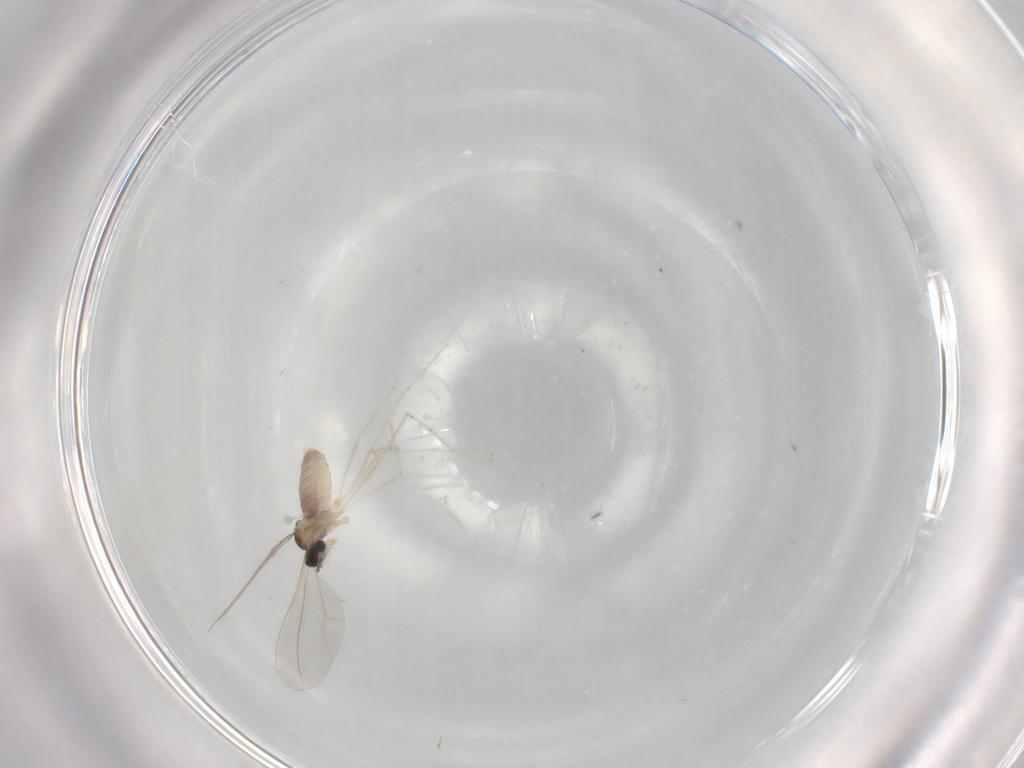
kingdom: Animalia
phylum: Arthropoda
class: Insecta
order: Diptera
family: Cecidomyiidae
